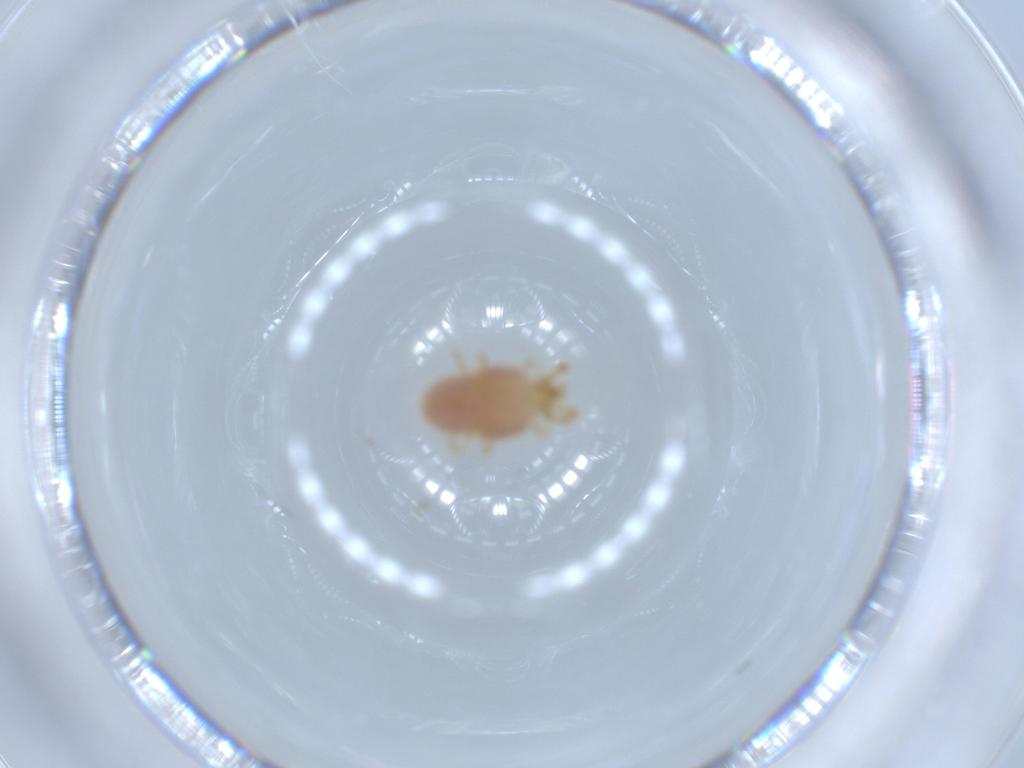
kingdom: Animalia
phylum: Arthropoda
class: Arachnida
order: Trombidiformes
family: Pygmephoridae
